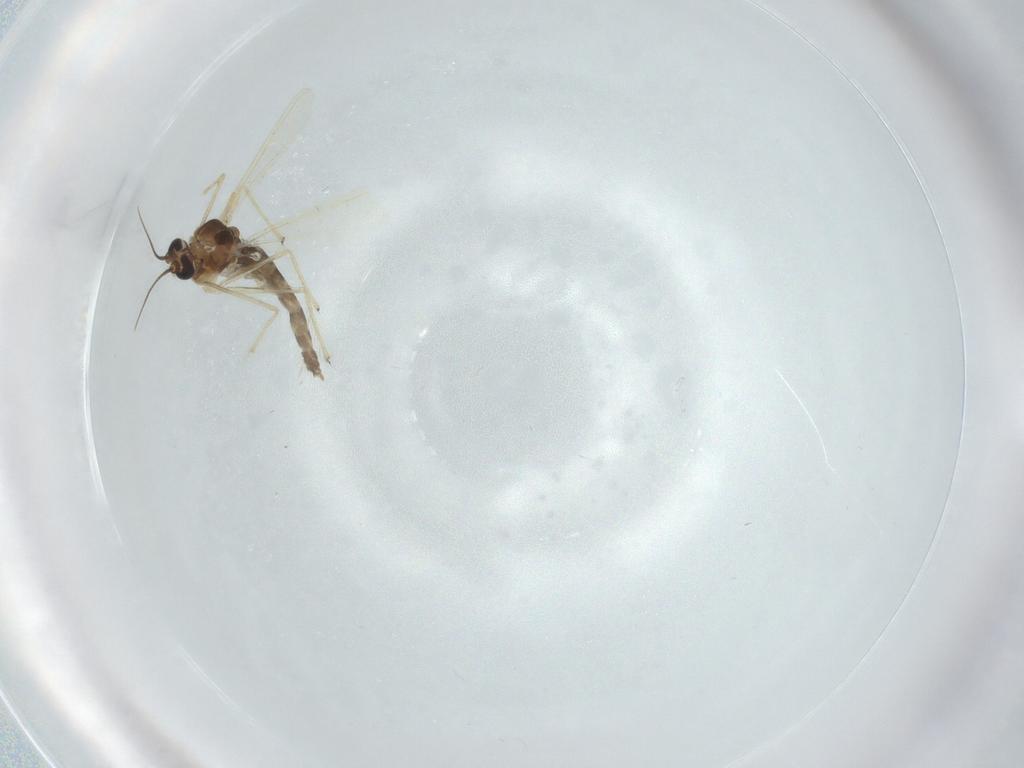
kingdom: Animalia
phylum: Arthropoda
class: Insecta
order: Diptera
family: Chironomidae
